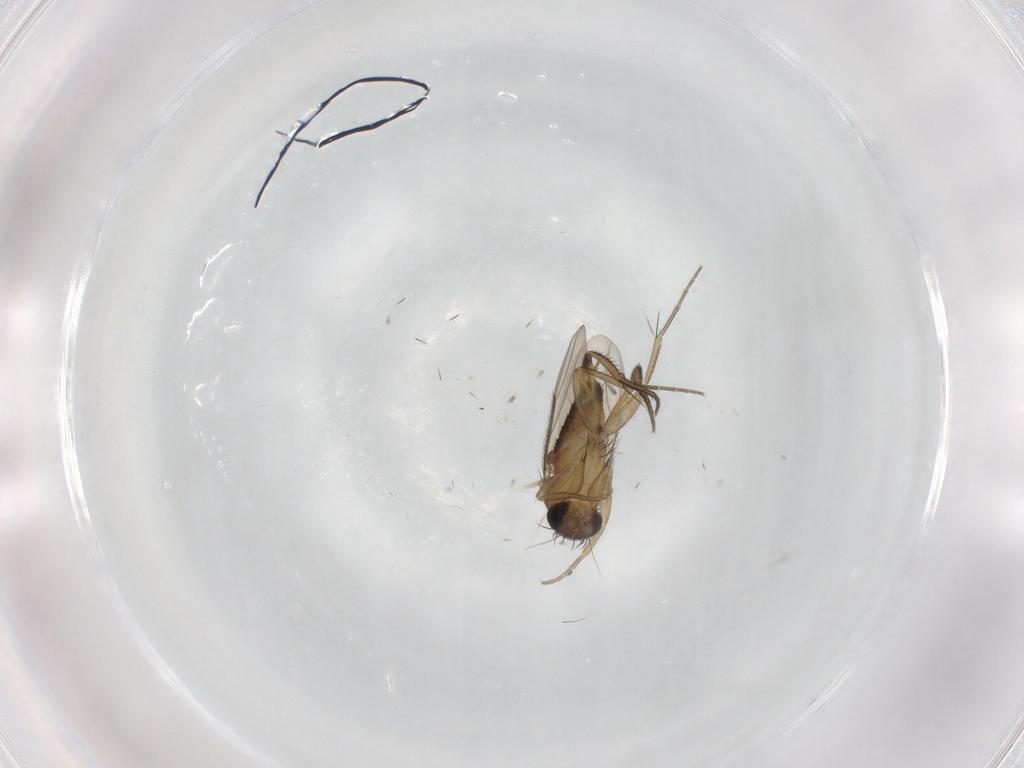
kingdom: Animalia
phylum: Arthropoda
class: Insecta
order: Diptera
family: Phoridae
